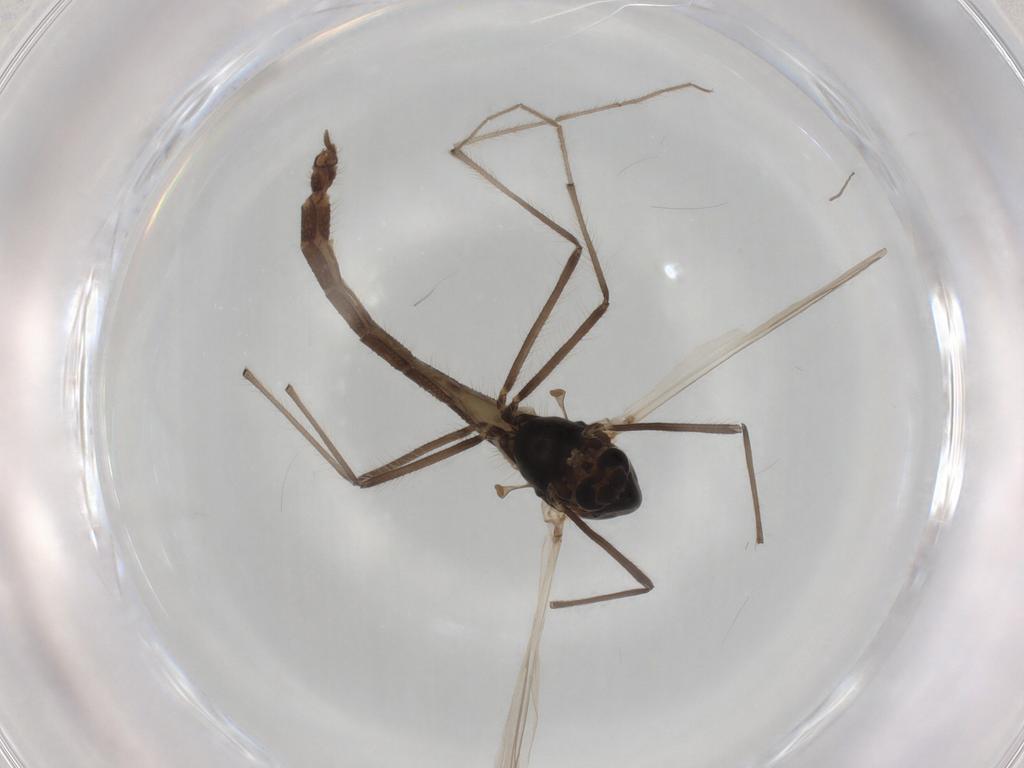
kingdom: Animalia
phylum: Arthropoda
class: Insecta
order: Diptera
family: Chironomidae
